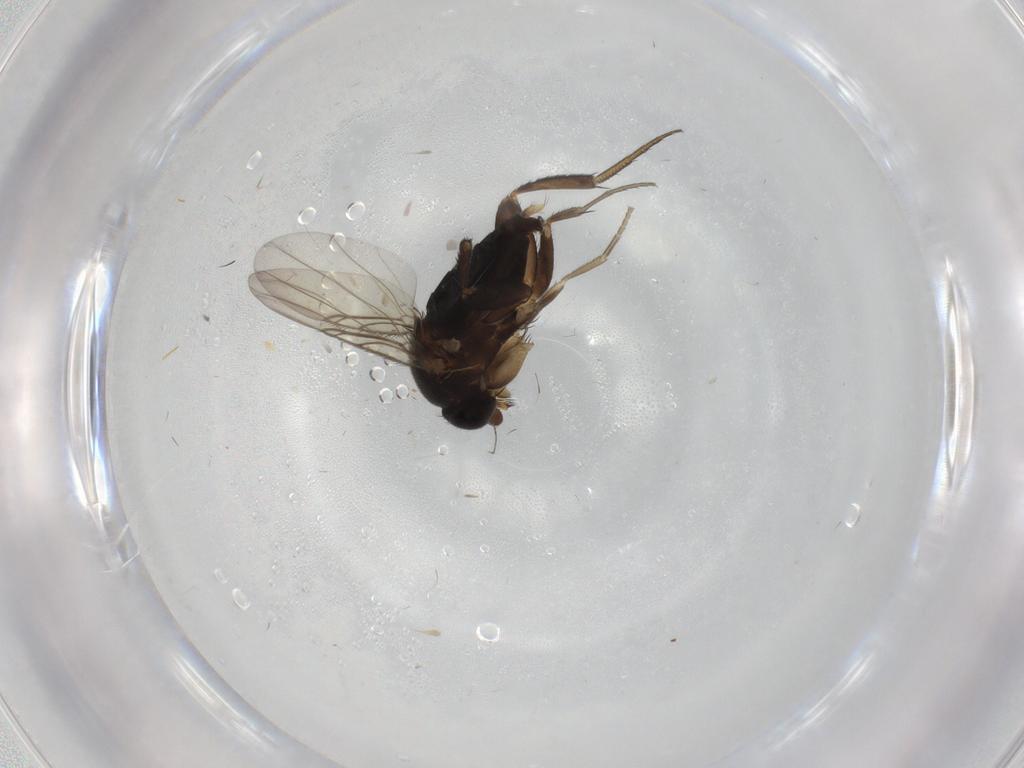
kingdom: Animalia
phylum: Arthropoda
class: Insecta
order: Diptera
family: Phoridae
